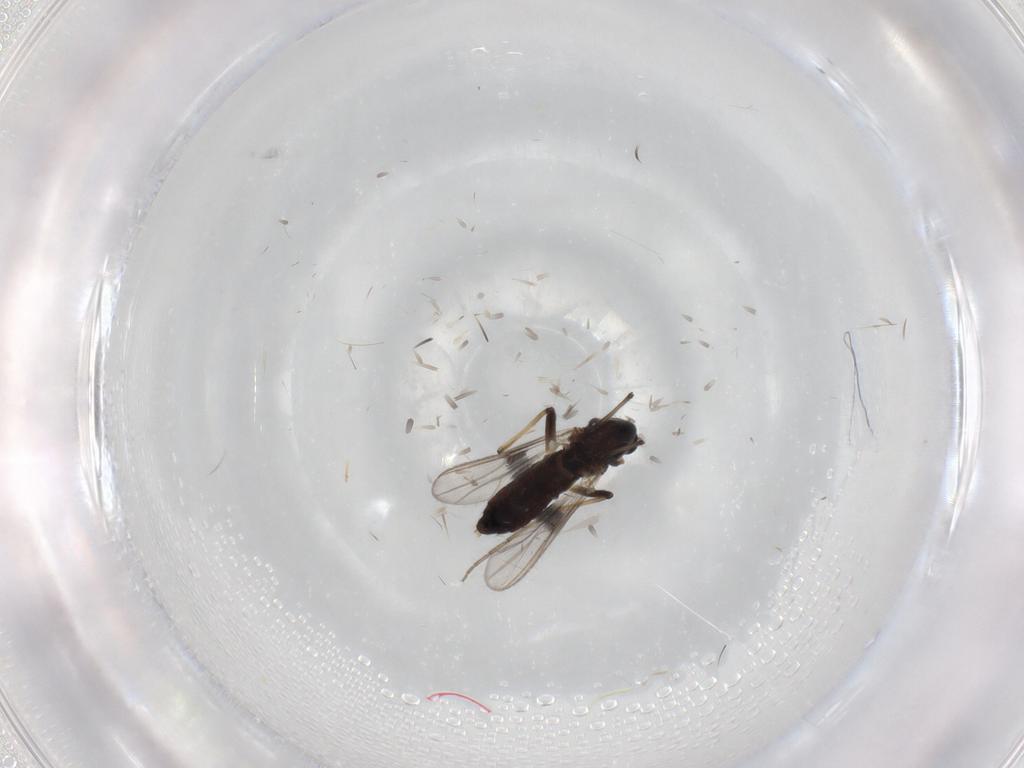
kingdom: Animalia
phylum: Arthropoda
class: Insecta
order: Diptera
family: Chironomidae
